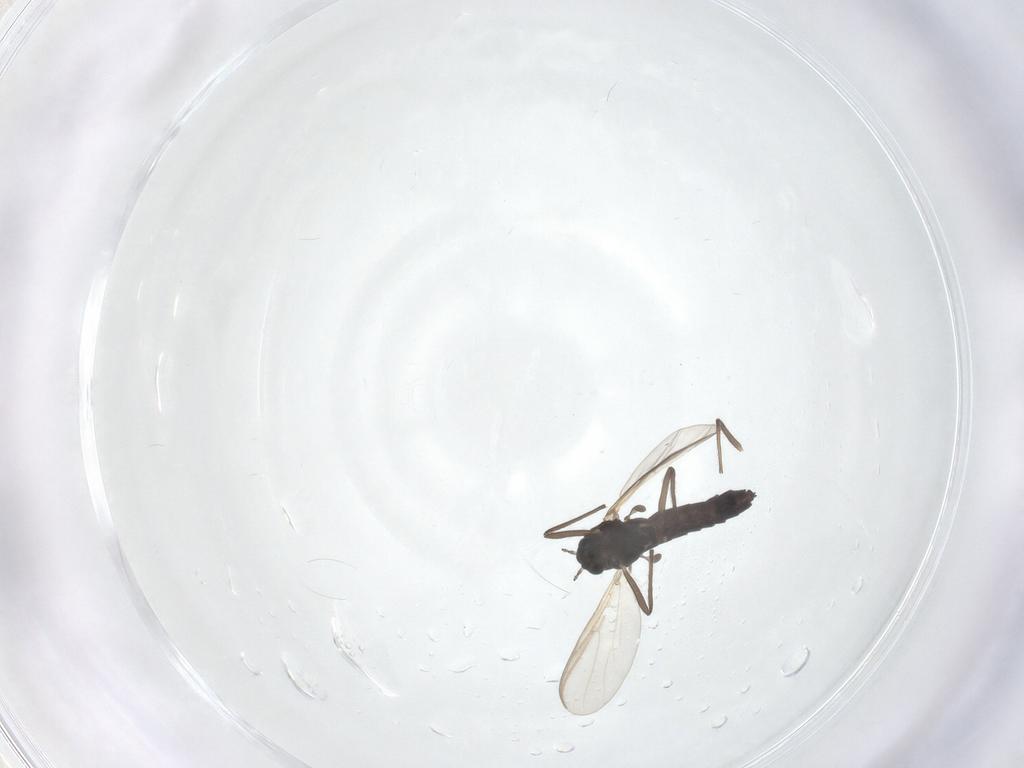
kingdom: Animalia
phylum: Arthropoda
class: Insecta
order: Diptera
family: Chironomidae
